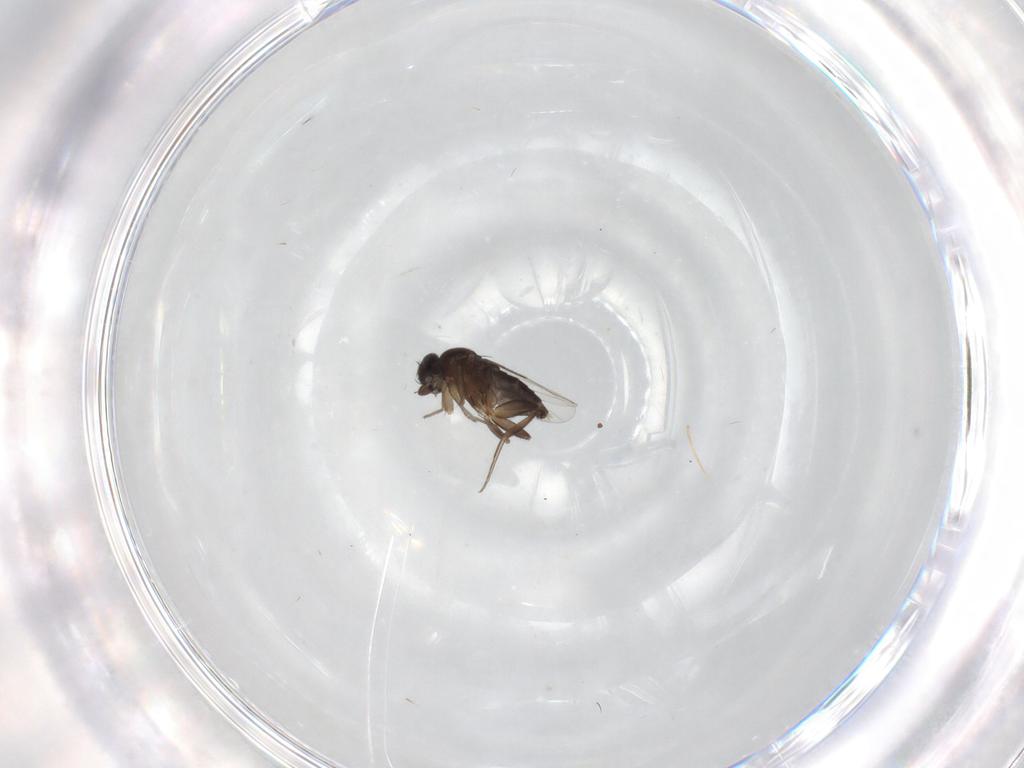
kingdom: Animalia
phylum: Arthropoda
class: Insecta
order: Diptera
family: Phoridae
